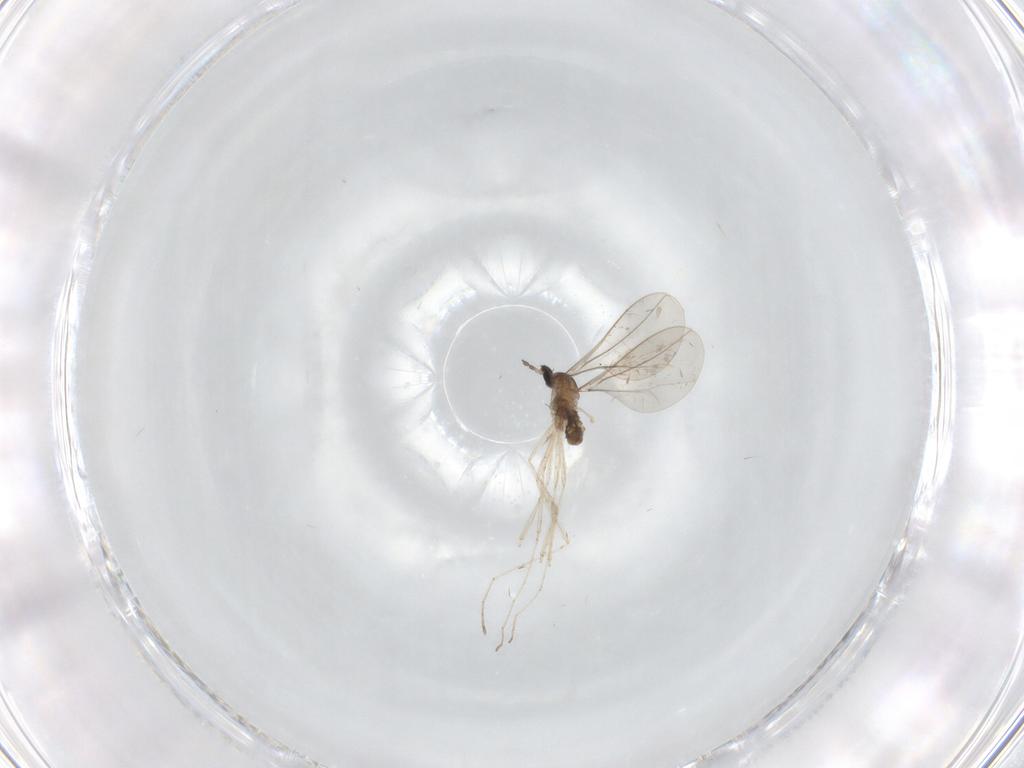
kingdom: Animalia
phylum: Arthropoda
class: Insecta
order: Diptera
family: Cecidomyiidae
